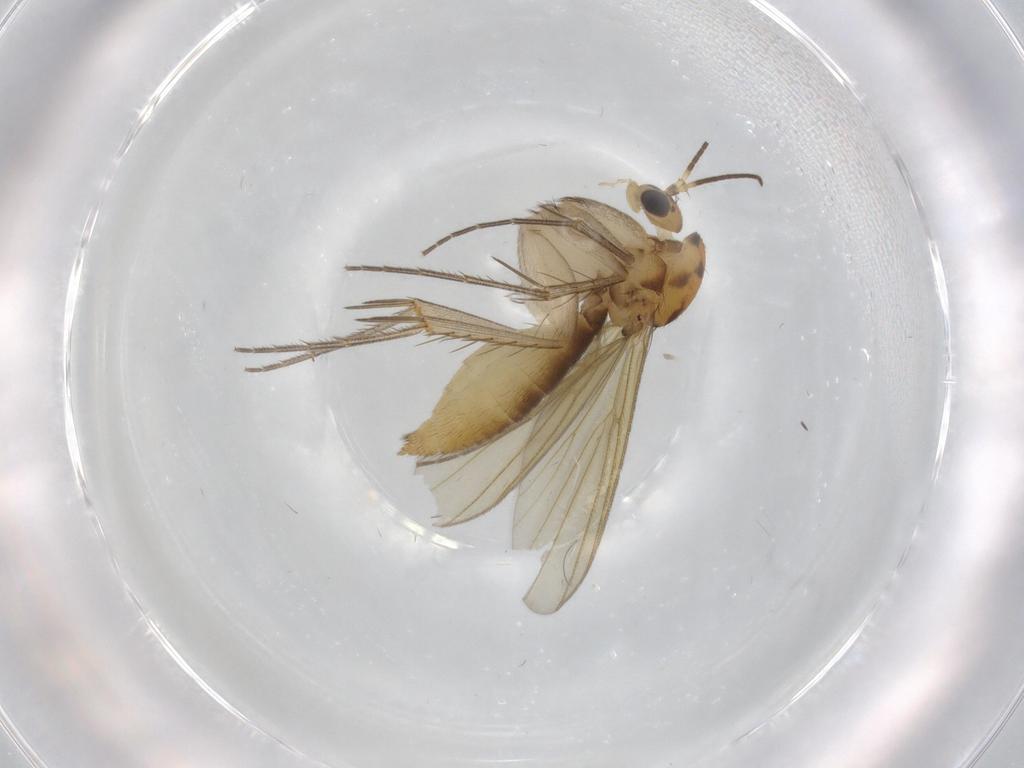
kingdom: Animalia
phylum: Arthropoda
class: Insecta
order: Diptera
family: Mycetophilidae
